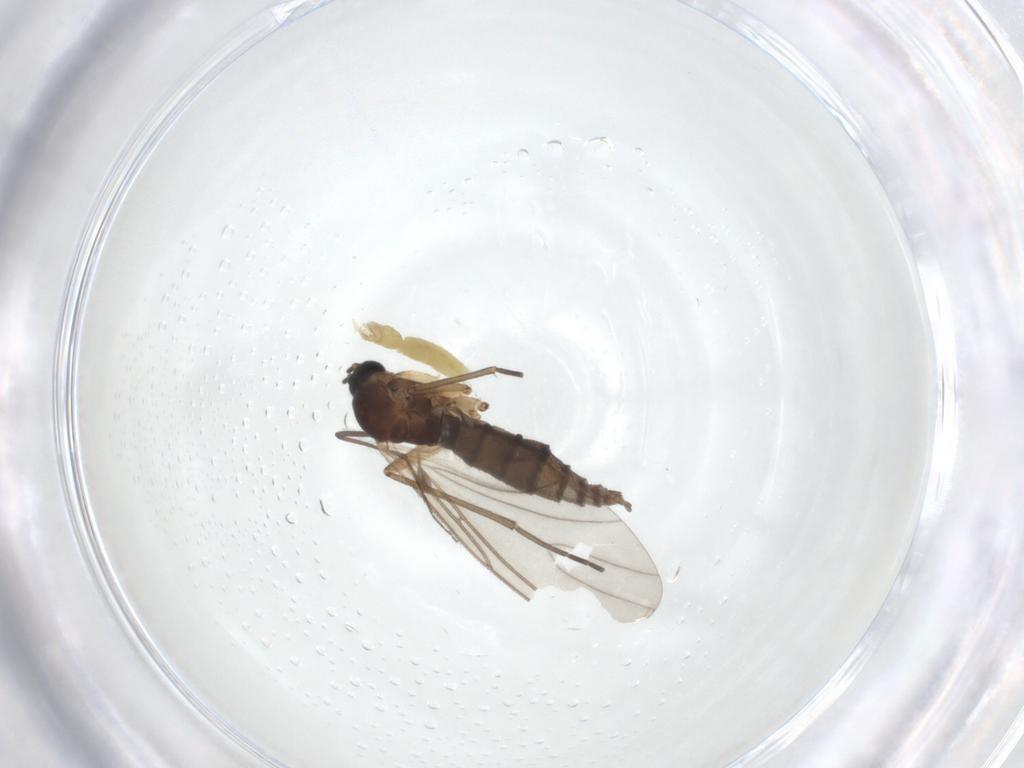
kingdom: Animalia
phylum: Arthropoda
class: Insecta
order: Diptera
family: Sciaridae
